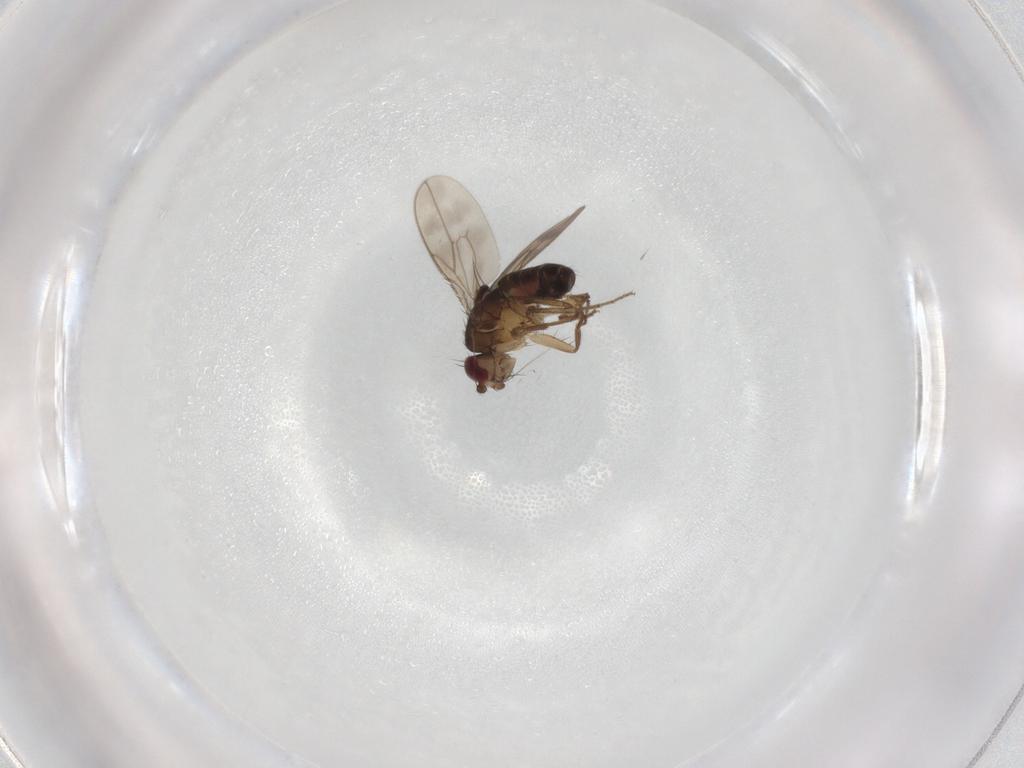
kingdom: Animalia
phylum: Arthropoda
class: Insecta
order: Diptera
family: Sphaeroceridae
